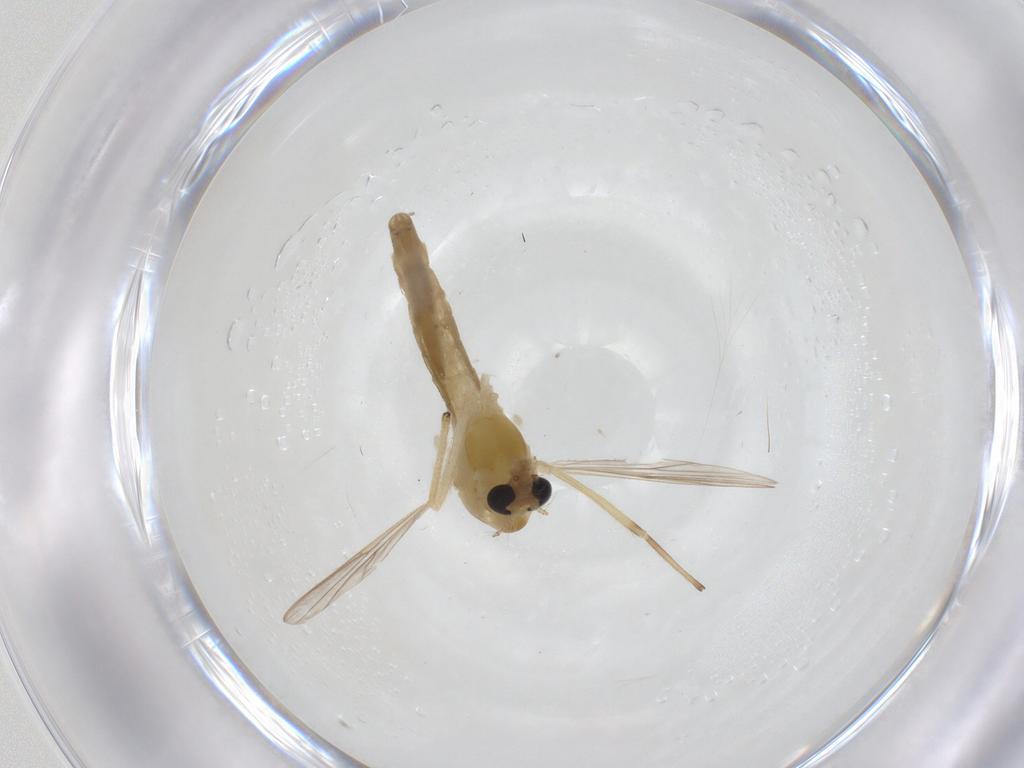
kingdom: Animalia
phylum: Arthropoda
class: Insecta
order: Diptera
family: Chironomidae
